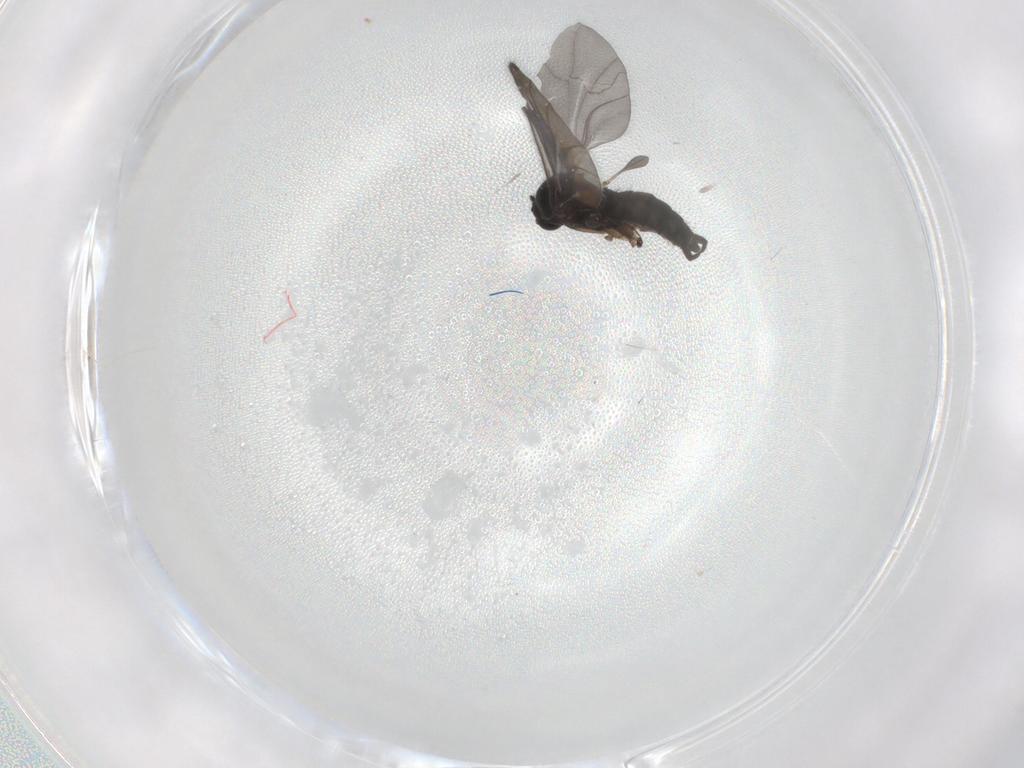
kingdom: Animalia
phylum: Arthropoda
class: Insecta
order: Diptera
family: Sciaridae
